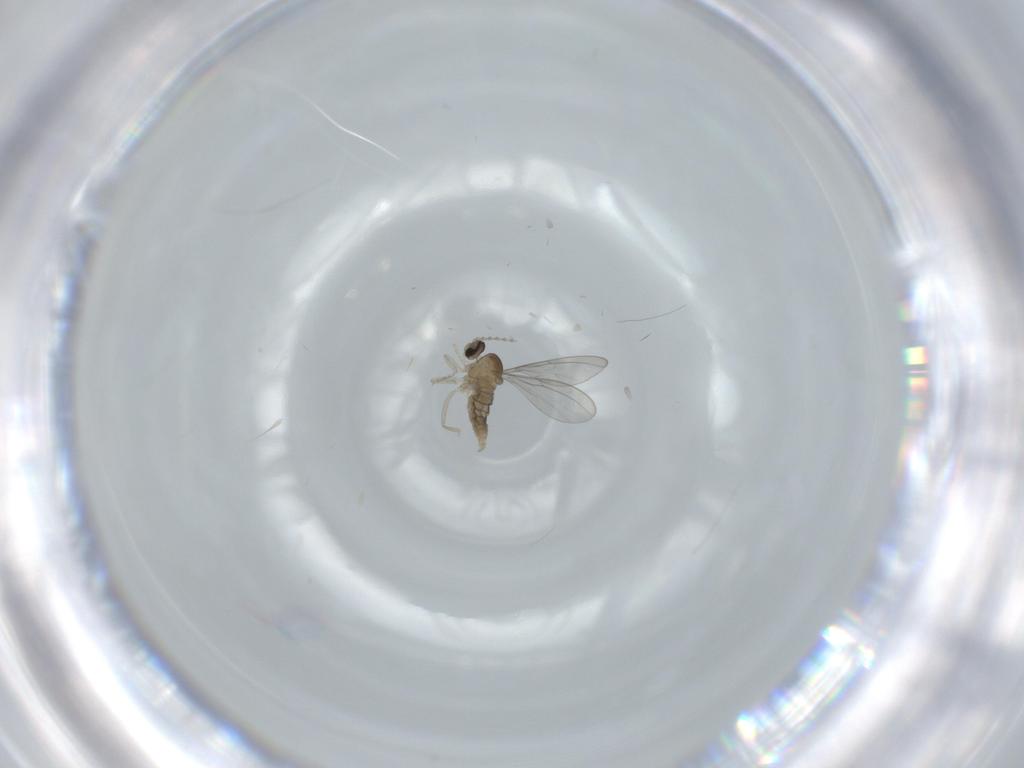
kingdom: Animalia
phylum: Arthropoda
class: Insecta
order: Diptera
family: Cecidomyiidae
